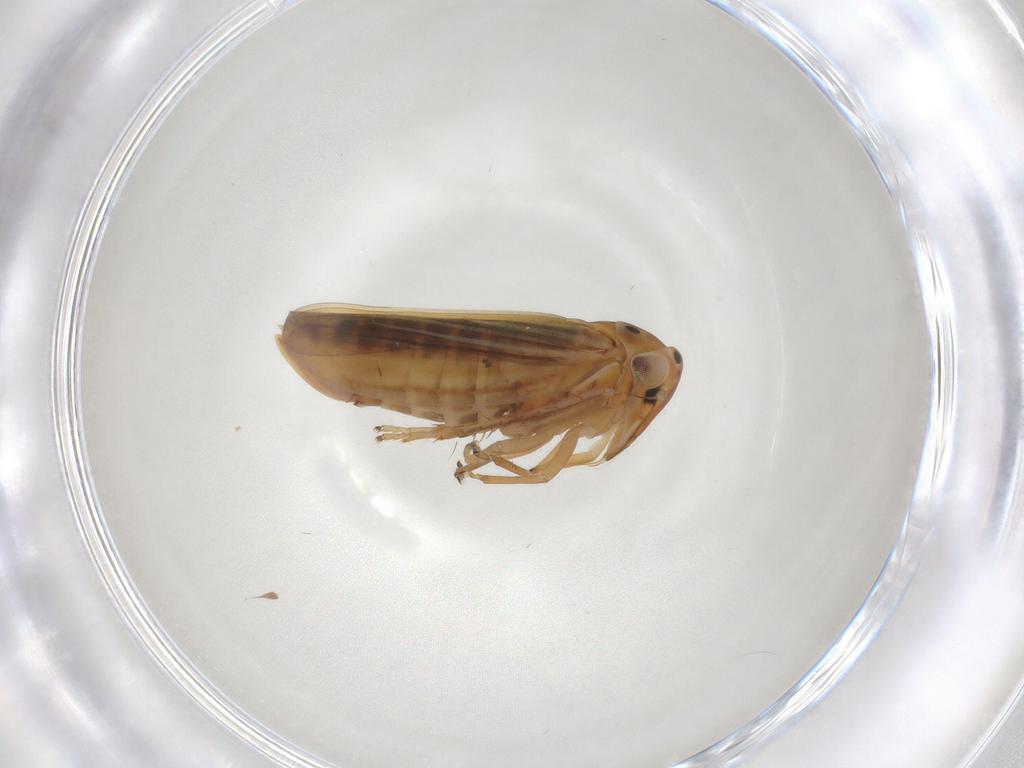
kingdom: Animalia
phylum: Arthropoda
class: Insecta
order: Hemiptera
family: Cicadellidae
